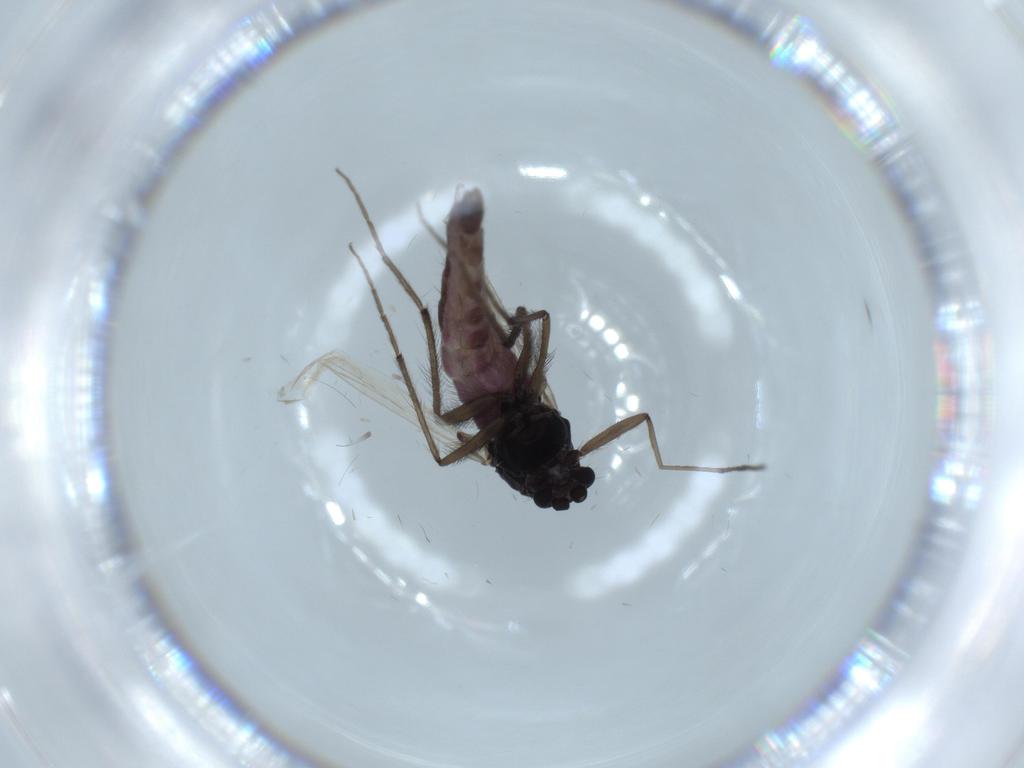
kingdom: Animalia
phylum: Arthropoda
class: Insecta
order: Diptera
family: Chironomidae
